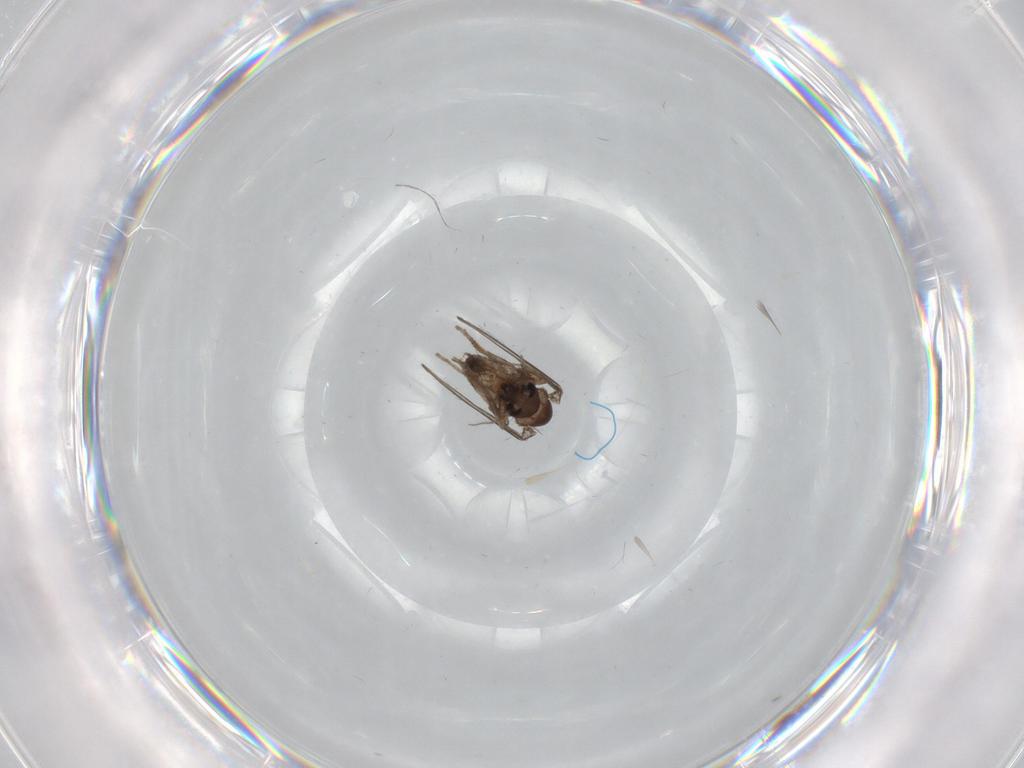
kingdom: Animalia
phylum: Arthropoda
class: Insecta
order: Diptera
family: Psychodidae
